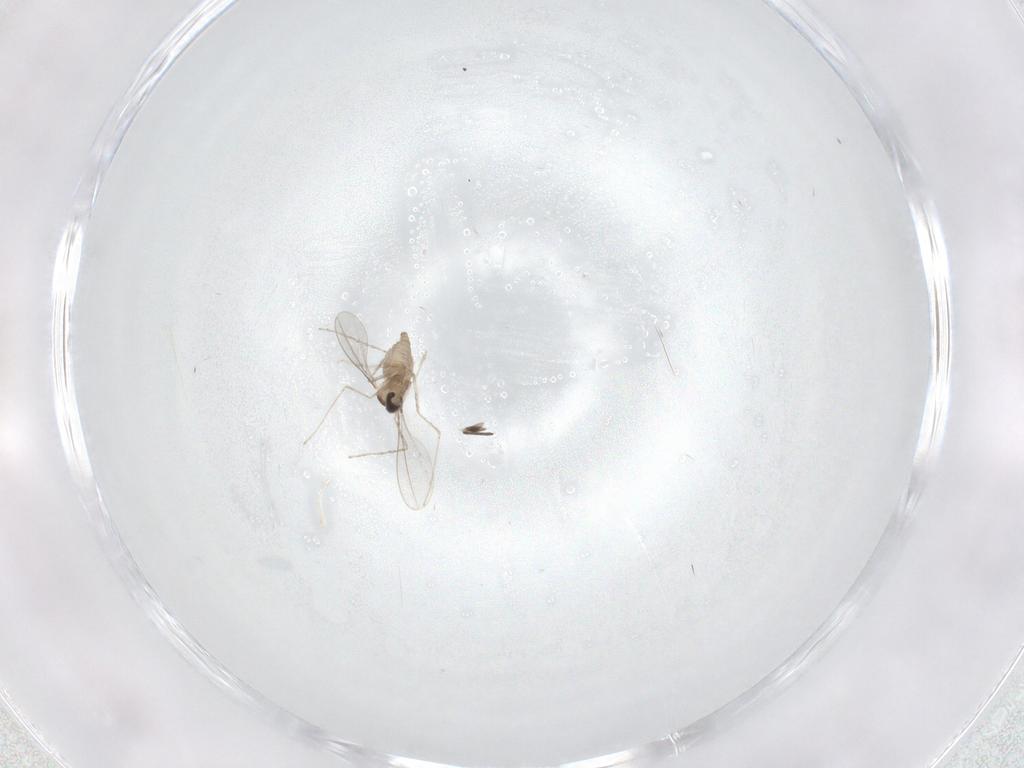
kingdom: Animalia
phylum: Arthropoda
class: Insecta
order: Diptera
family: Cecidomyiidae
